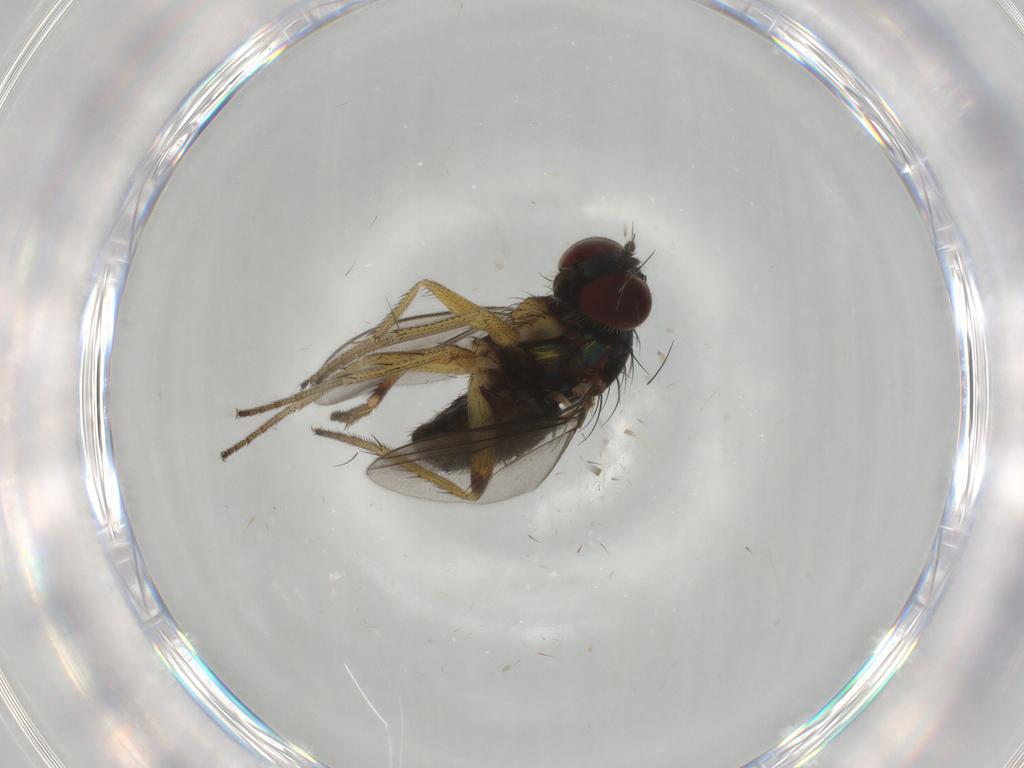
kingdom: Animalia
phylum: Arthropoda
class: Insecta
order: Diptera
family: Dolichopodidae
